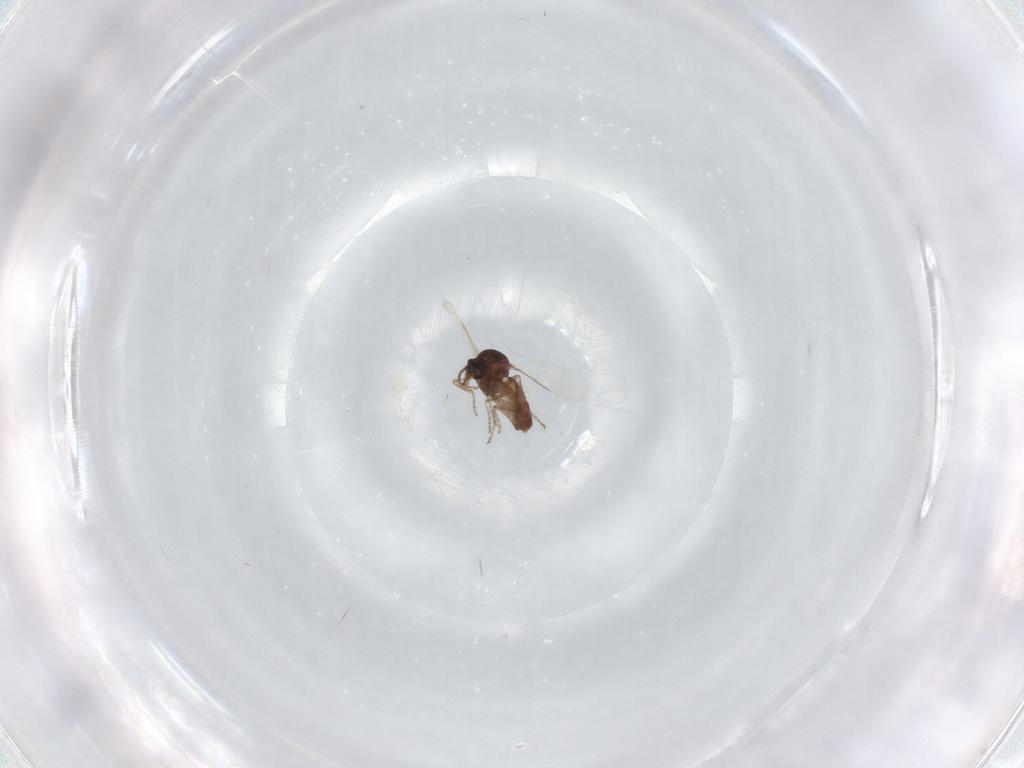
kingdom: Animalia
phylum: Arthropoda
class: Insecta
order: Diptera
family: Ceratopogonidae
